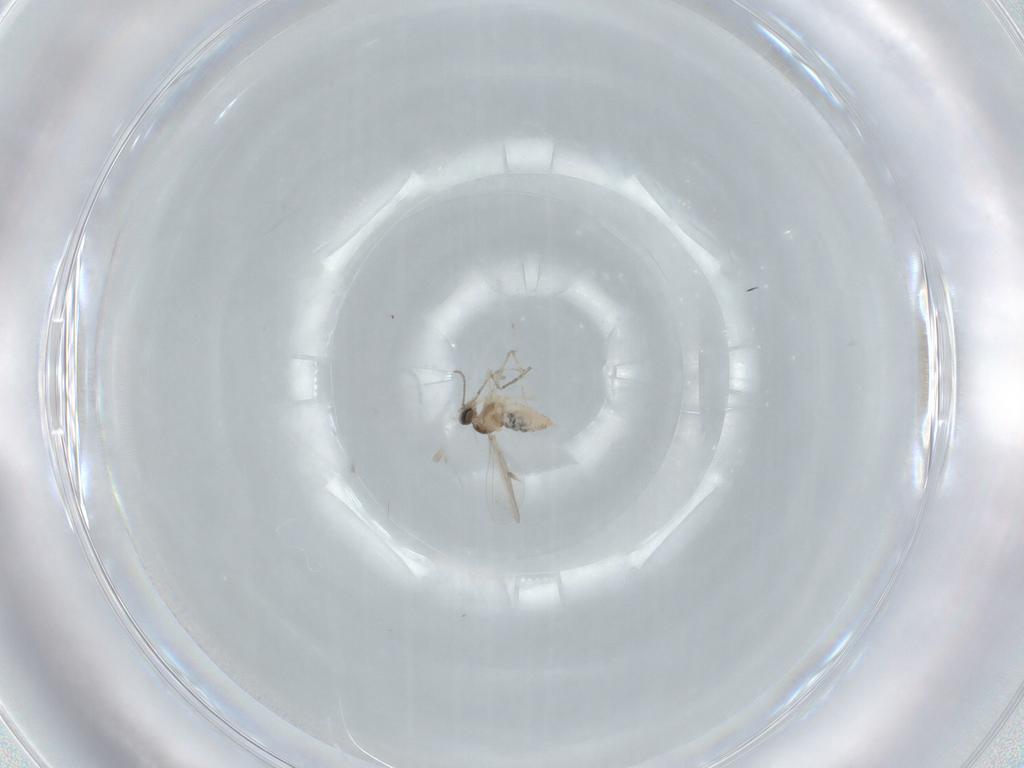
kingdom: Animalia
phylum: Arthropoda
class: Insecta
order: Diptera
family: Cecidomyiidae
